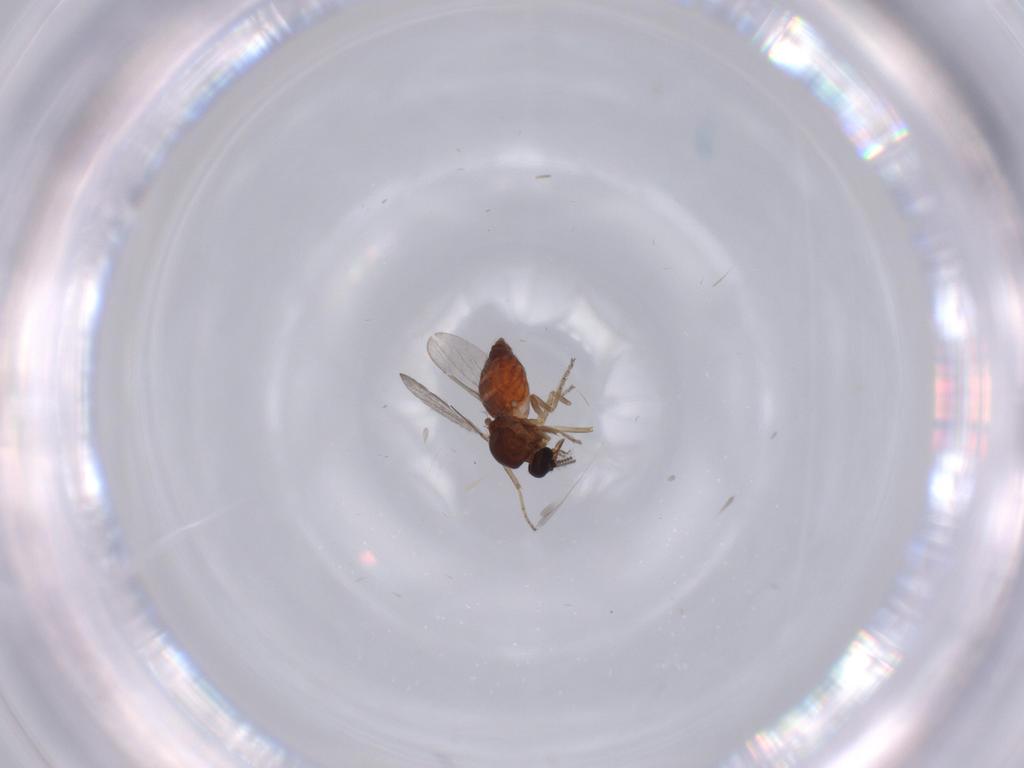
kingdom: Animalia
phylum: Arthropoda
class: Insecta
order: Diptera
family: Ceratopogonidae
